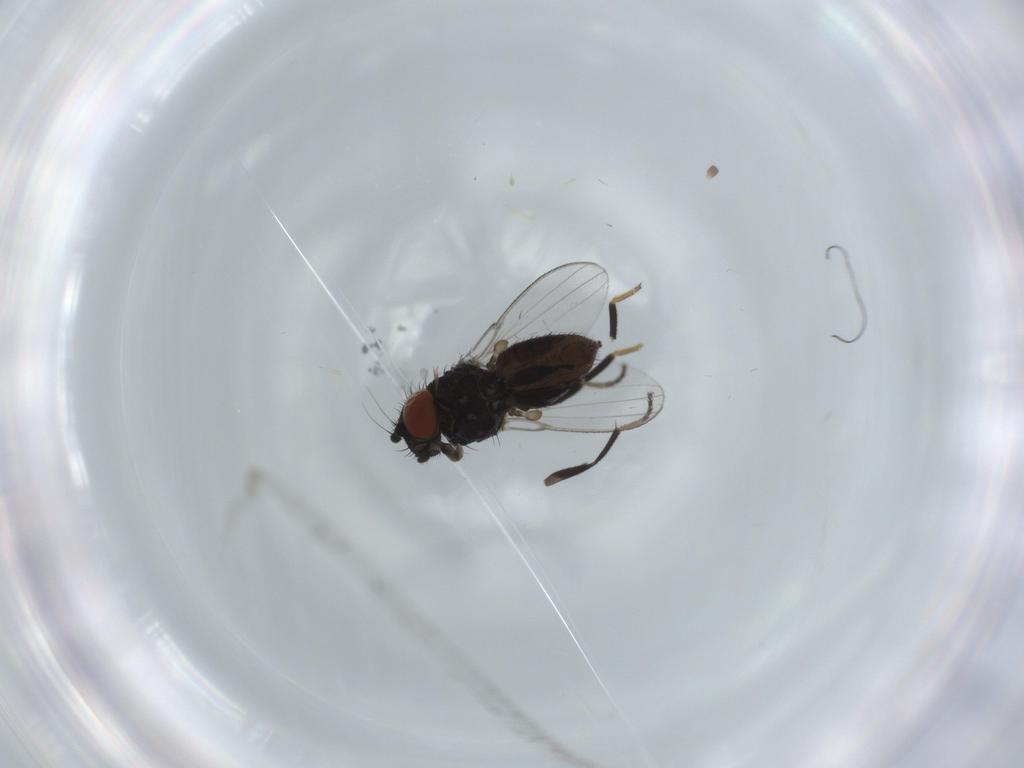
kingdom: Animalia
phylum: Arthropoda
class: Insecta
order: Diptera
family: Milichiidae
